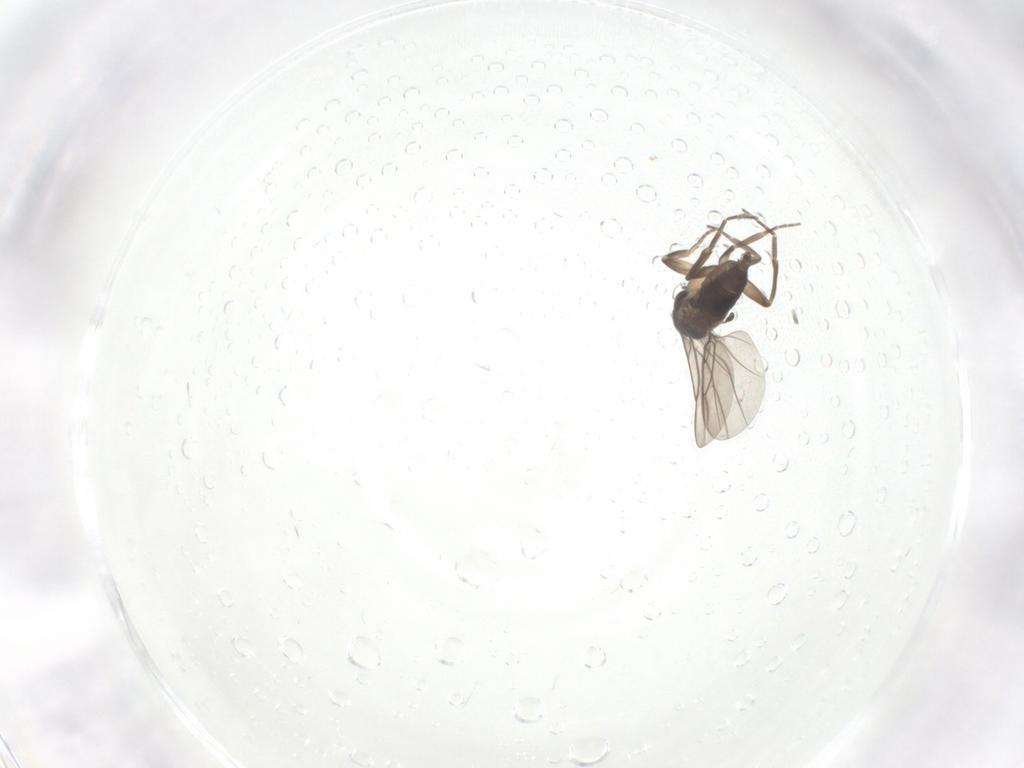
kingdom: Animalia
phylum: Arthropoda
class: Insecta
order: Diptera
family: Phoridae
